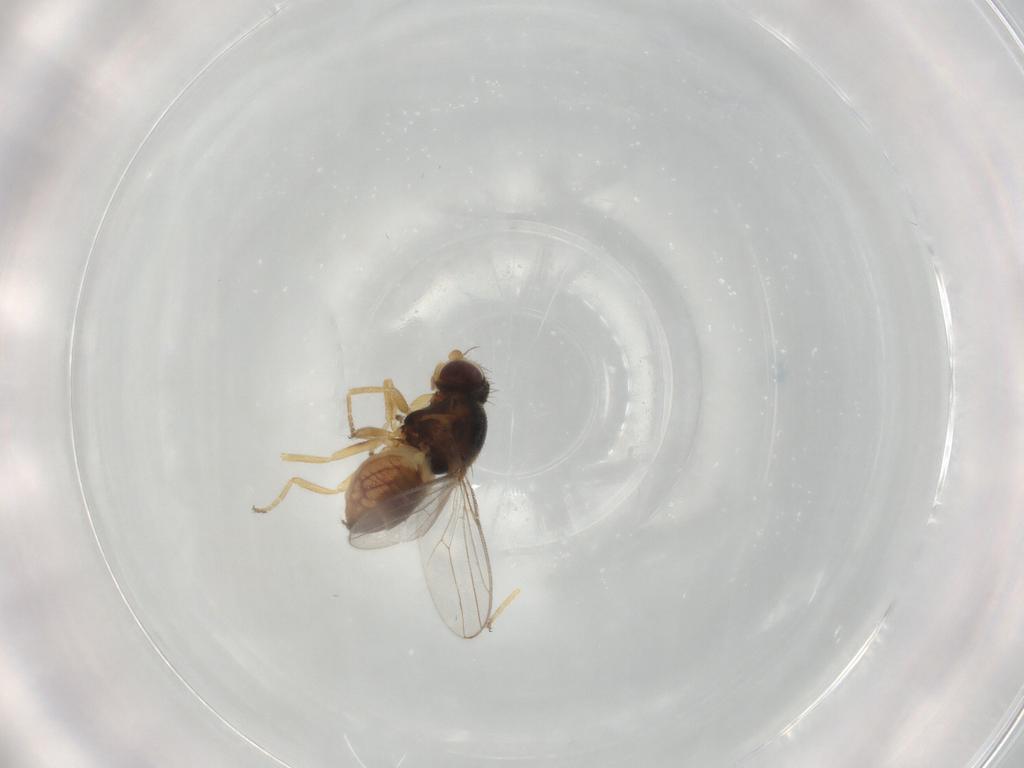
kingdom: Animalia
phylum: Arthropoda
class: Insecta
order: Diptera
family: Chloropidae
